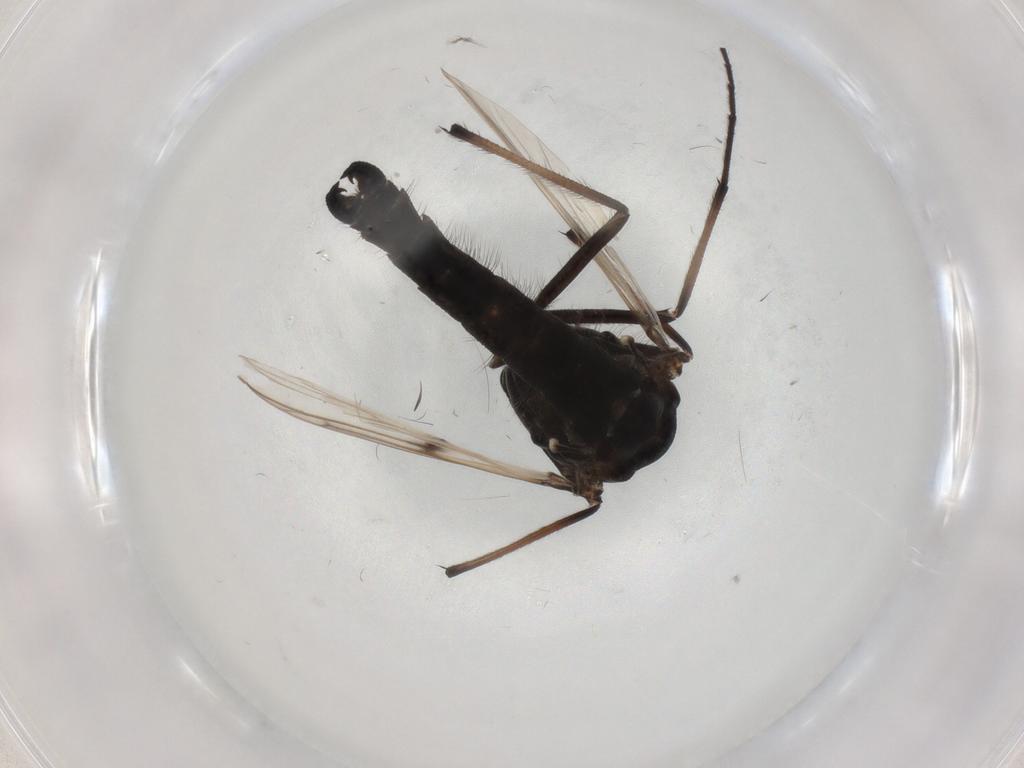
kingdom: Animalia
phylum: Arthropoda
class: Insecta
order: Diptera
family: Chironomidae
